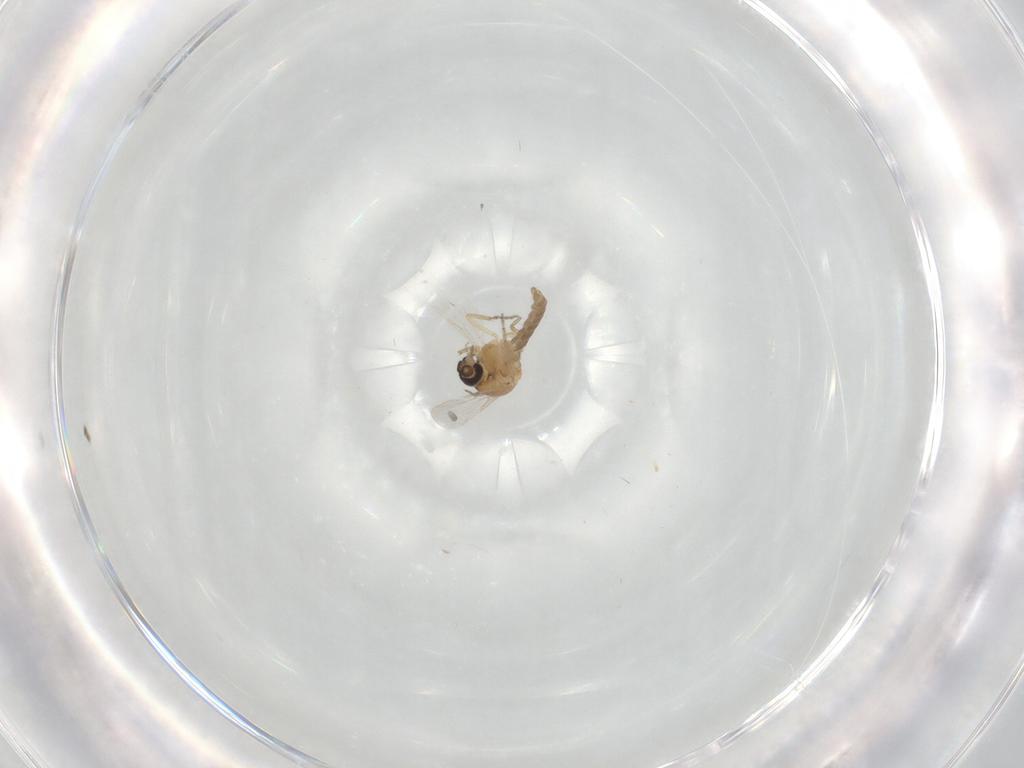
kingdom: Animalia
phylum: Arthropoda
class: Insecta
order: Diptera
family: Ceratopogonidae
